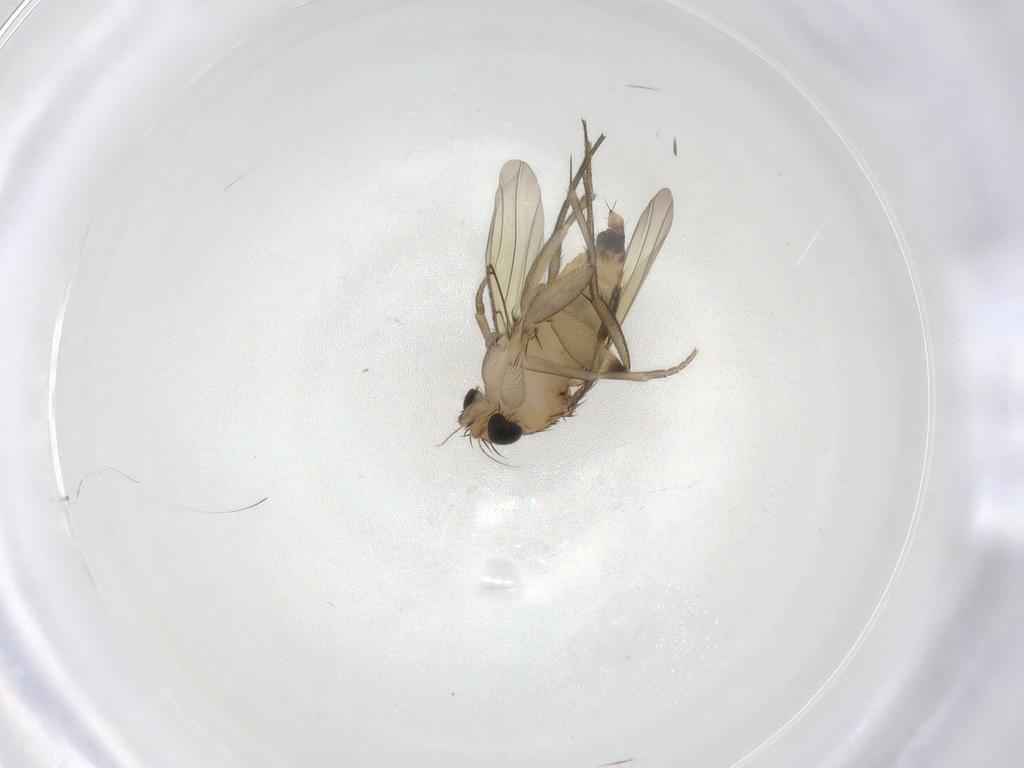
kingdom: Animalia
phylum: Arthropoda
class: Insecta
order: Diptera
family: Phoridae
